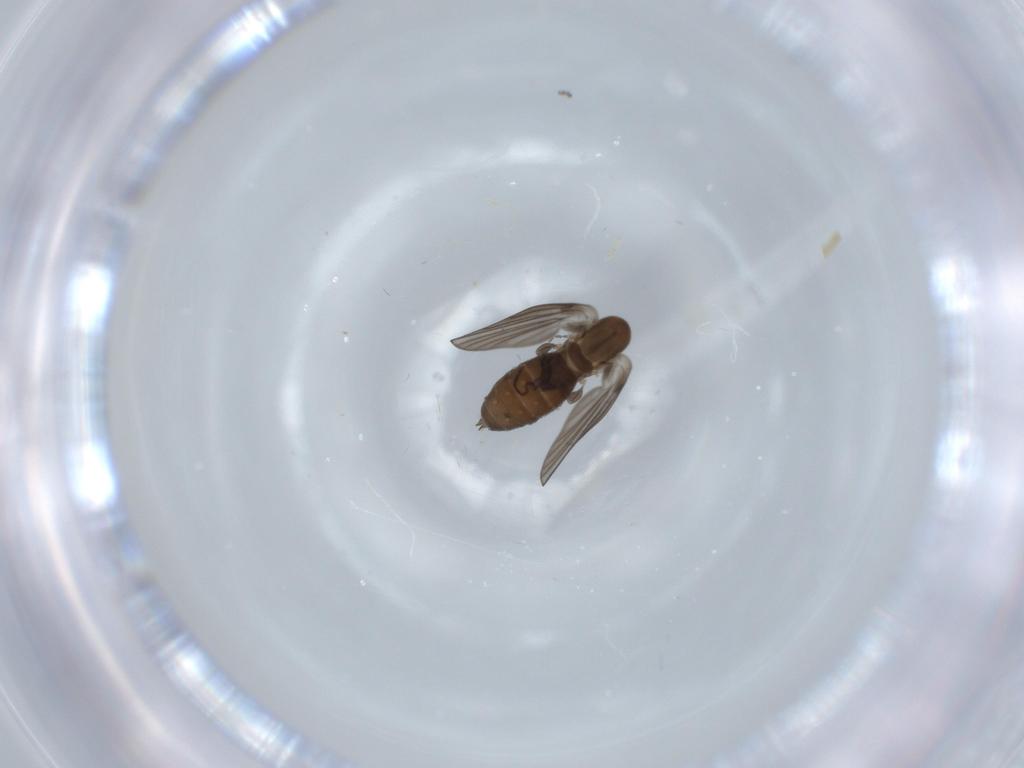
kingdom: Animalia
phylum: Arthropoda
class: Insecta
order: Diptera
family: Psychodidae
